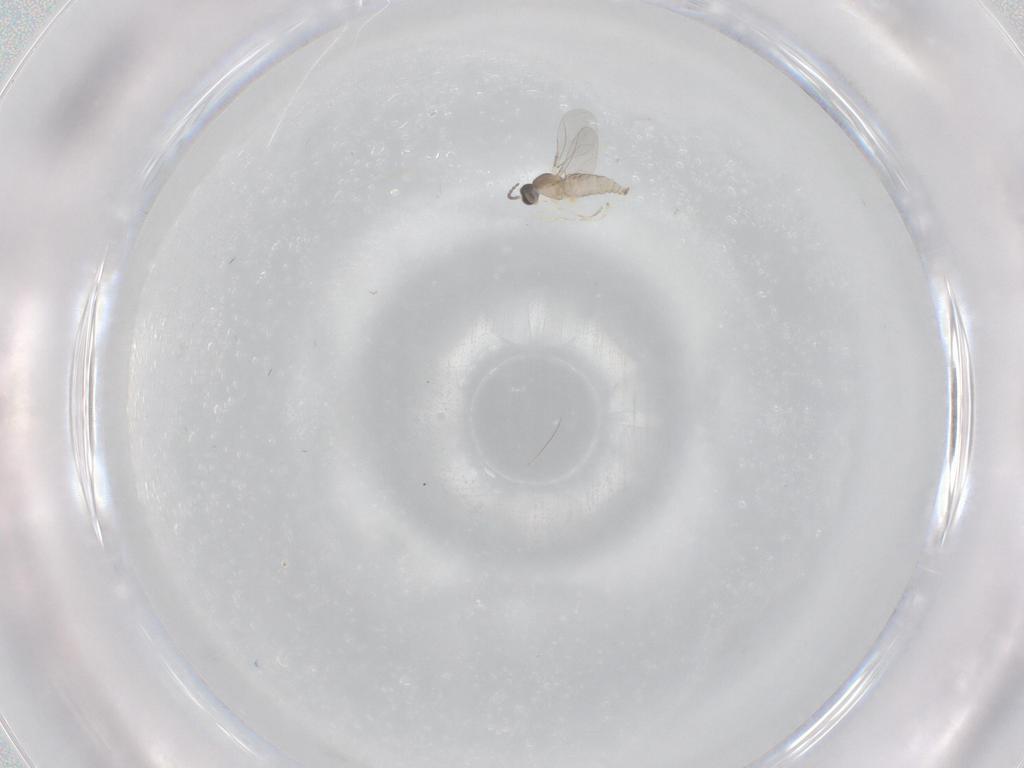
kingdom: Animalia
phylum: Arthropoda
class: Insecta
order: Diptera
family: Cecidomyiidae
